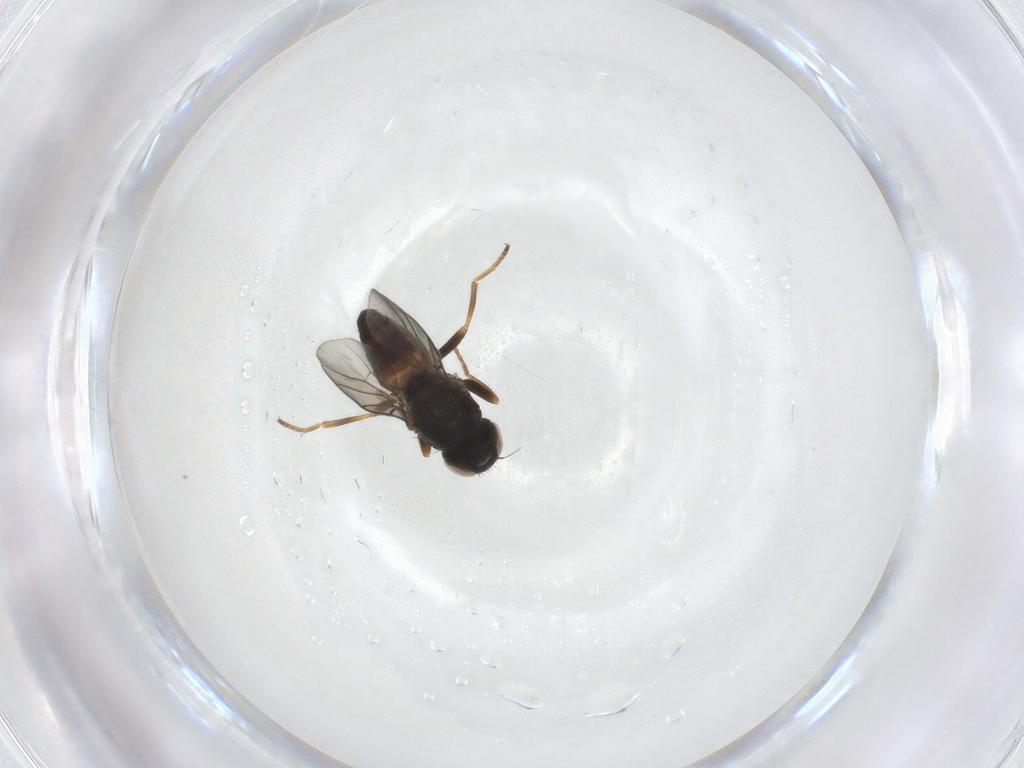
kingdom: Animalia
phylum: Arthropoda
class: Insecta
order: Diptera
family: Chloropidae
